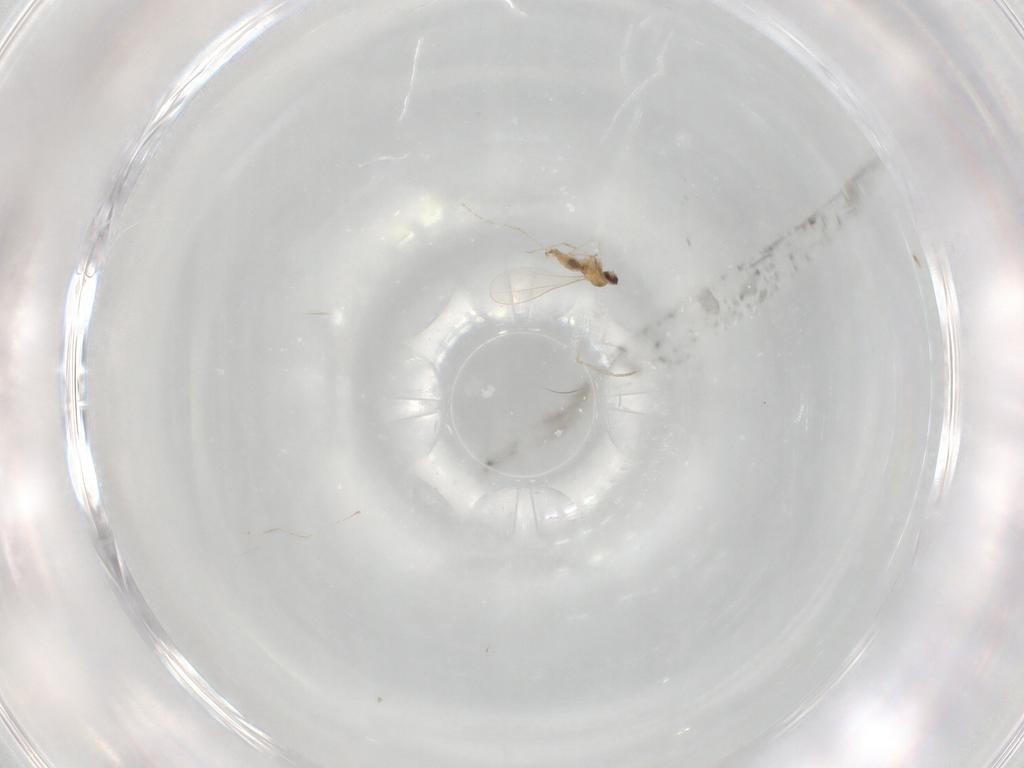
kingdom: Animalia
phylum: Arthropoda
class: Insecta
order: Diptera
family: Cecidomyiidae
